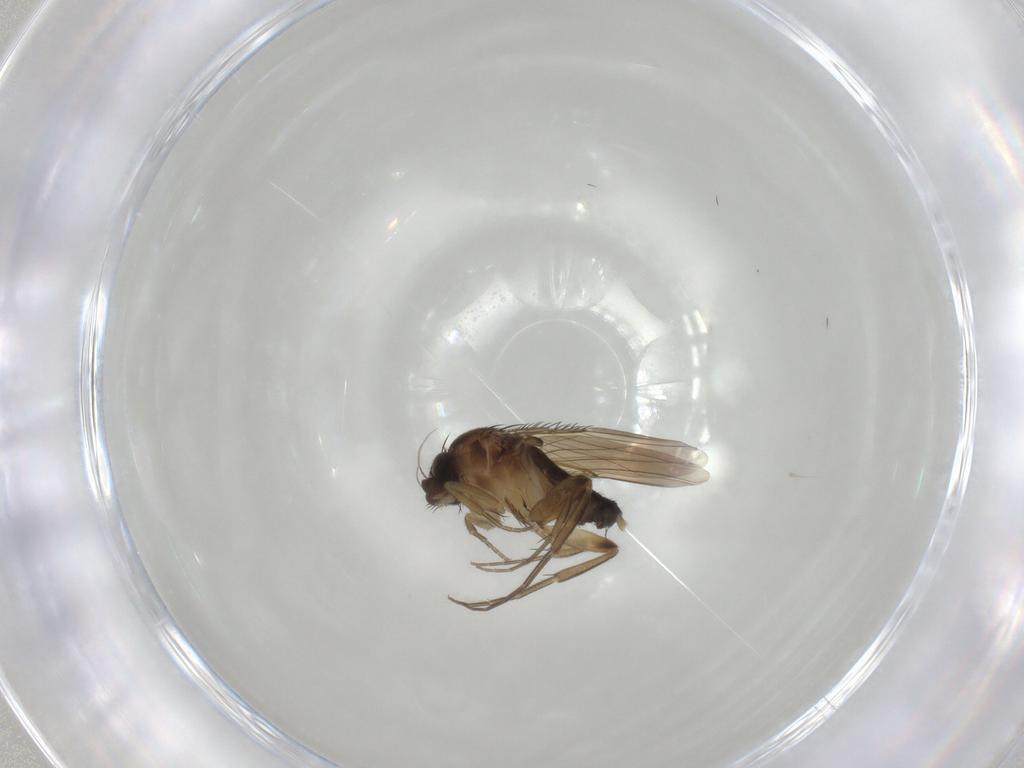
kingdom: Animalia
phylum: Arthropoda
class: Insecta
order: Diptera
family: Phoridae
